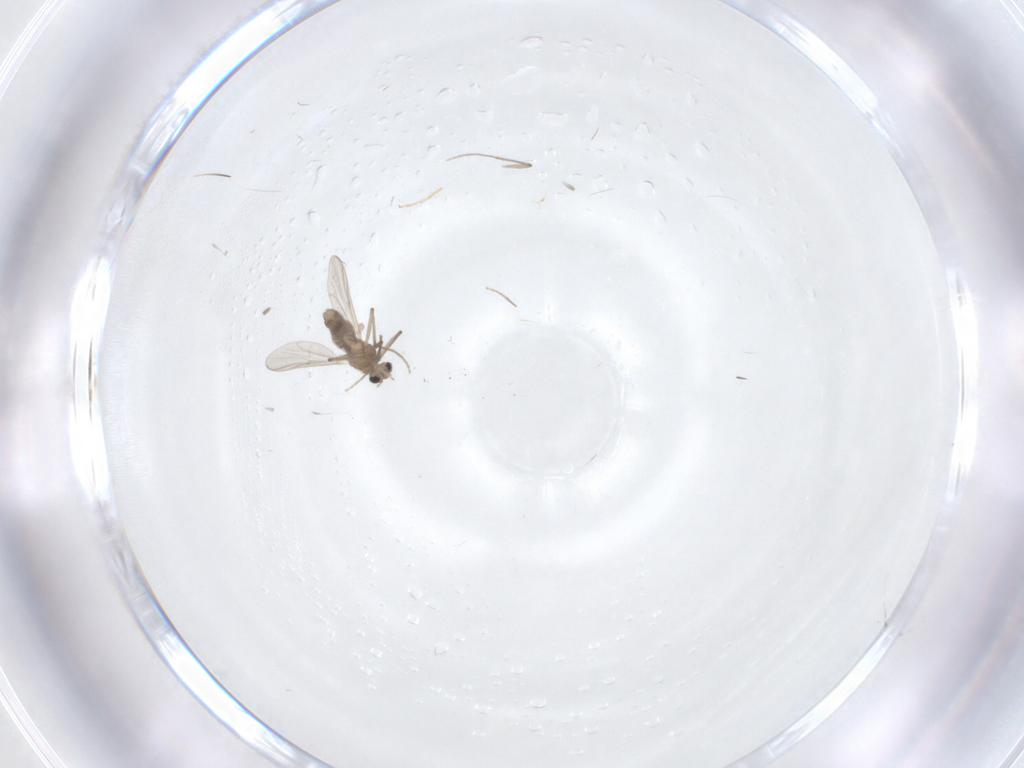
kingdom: Animalia
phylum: Arthropoda
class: Insecta
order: Diptera
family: Chironomidae
